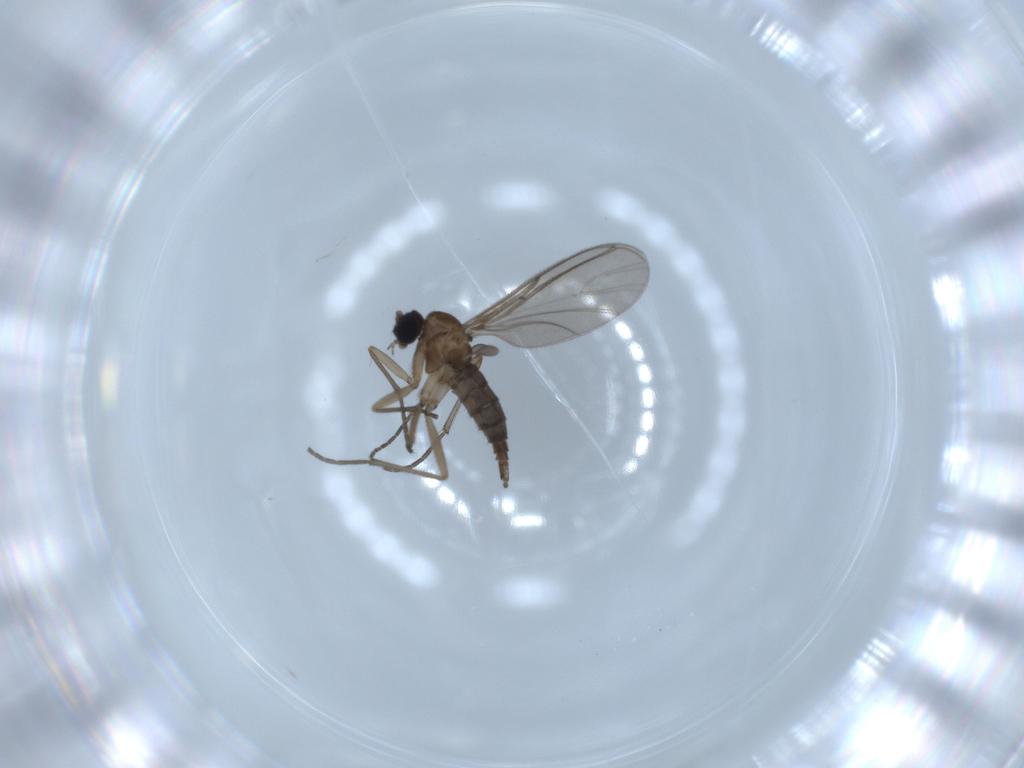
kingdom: Animalia
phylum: Arthropoda
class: Insecta
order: Diptera
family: Sciaridae
